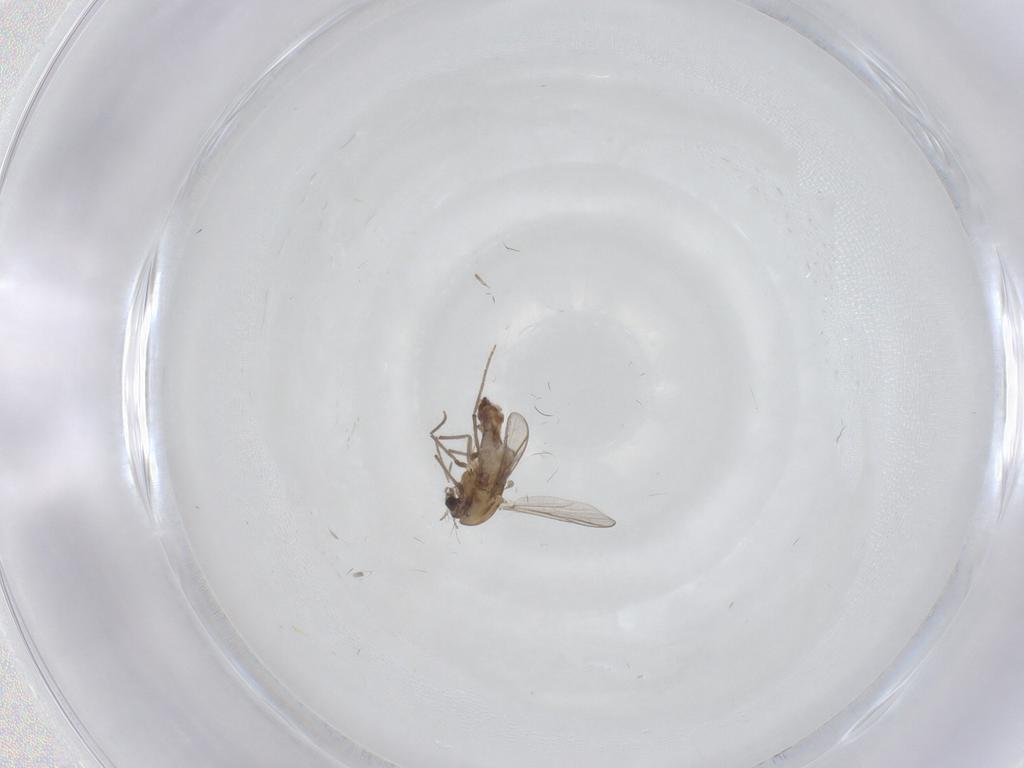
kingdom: Animalia
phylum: Arthropoda
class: Insecta
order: Diptera
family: Chironomidae
